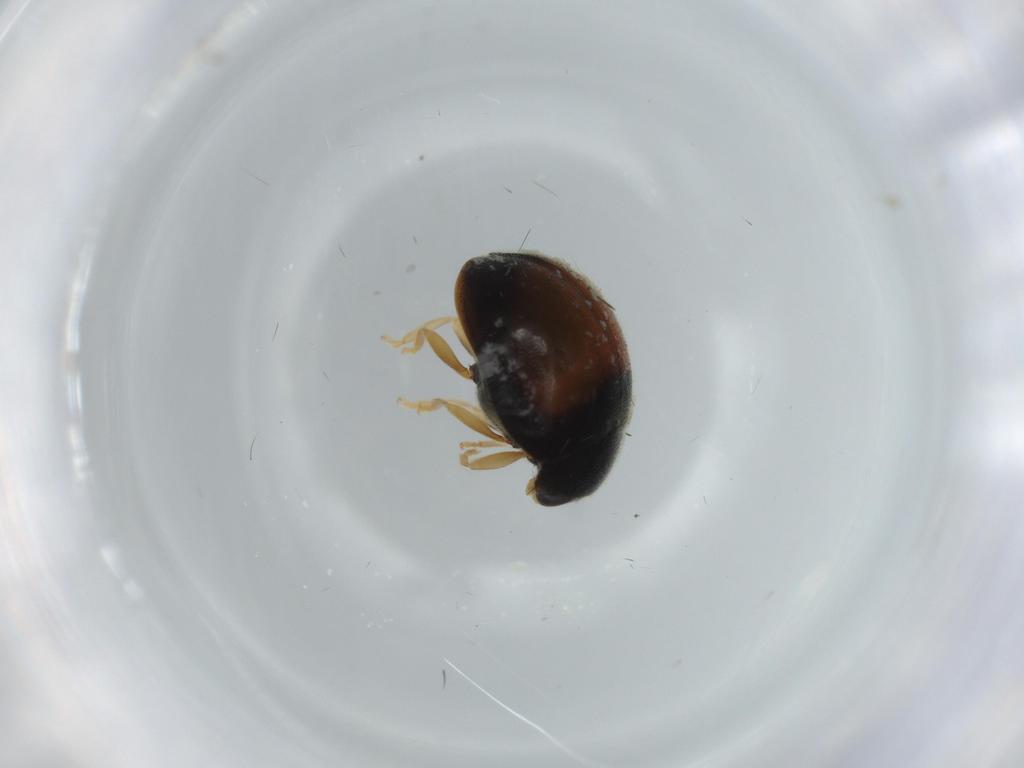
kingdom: Animalia
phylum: Arthropoda
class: Insecta
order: Coleoptera
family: Coccinellidae
